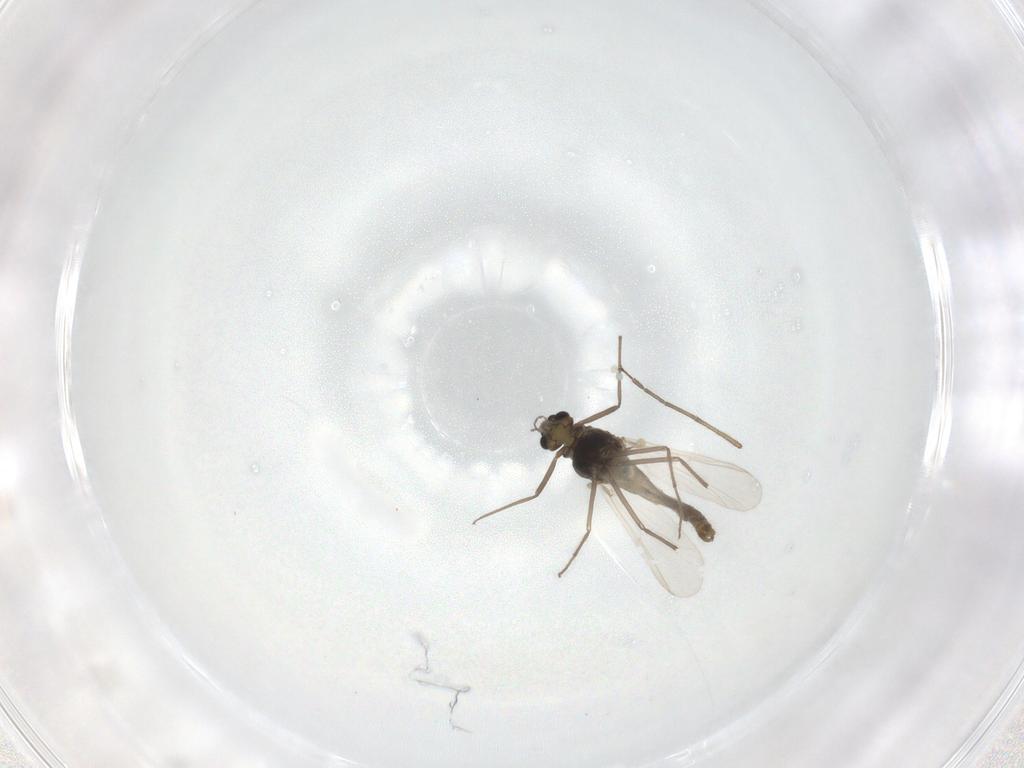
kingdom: Animalia
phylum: Arthropoda
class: Insecta
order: Diptera
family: Chironomidae
